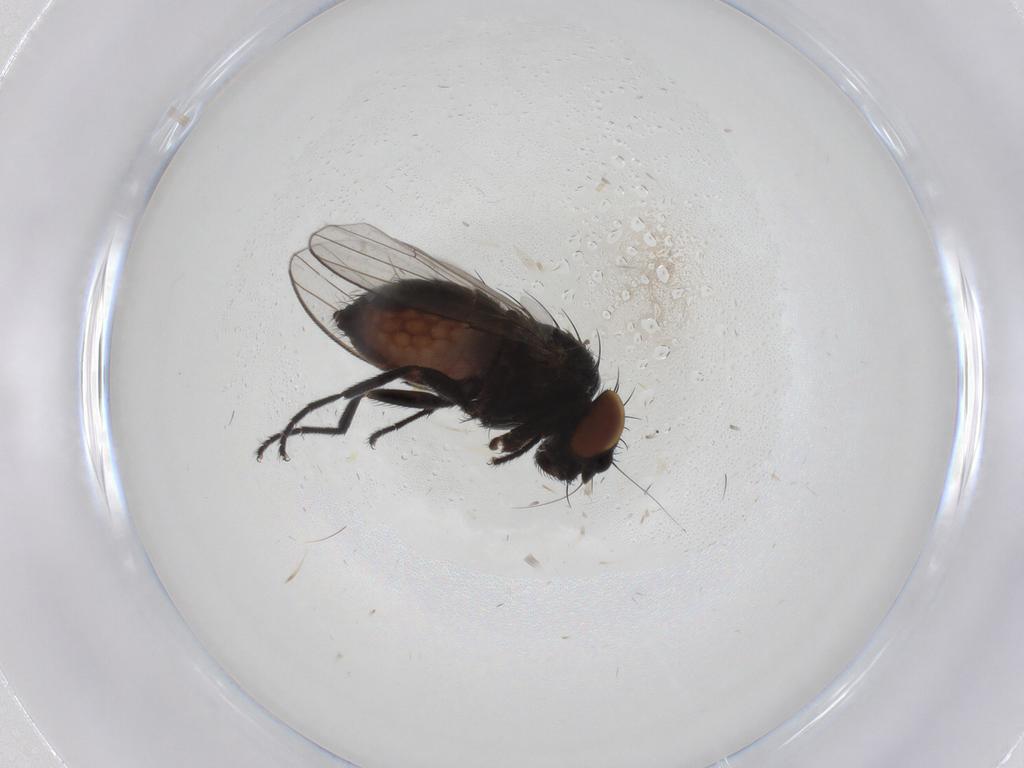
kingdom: Animalia
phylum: Arthropoda
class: Insecta
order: Diptera
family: Milichiidae
